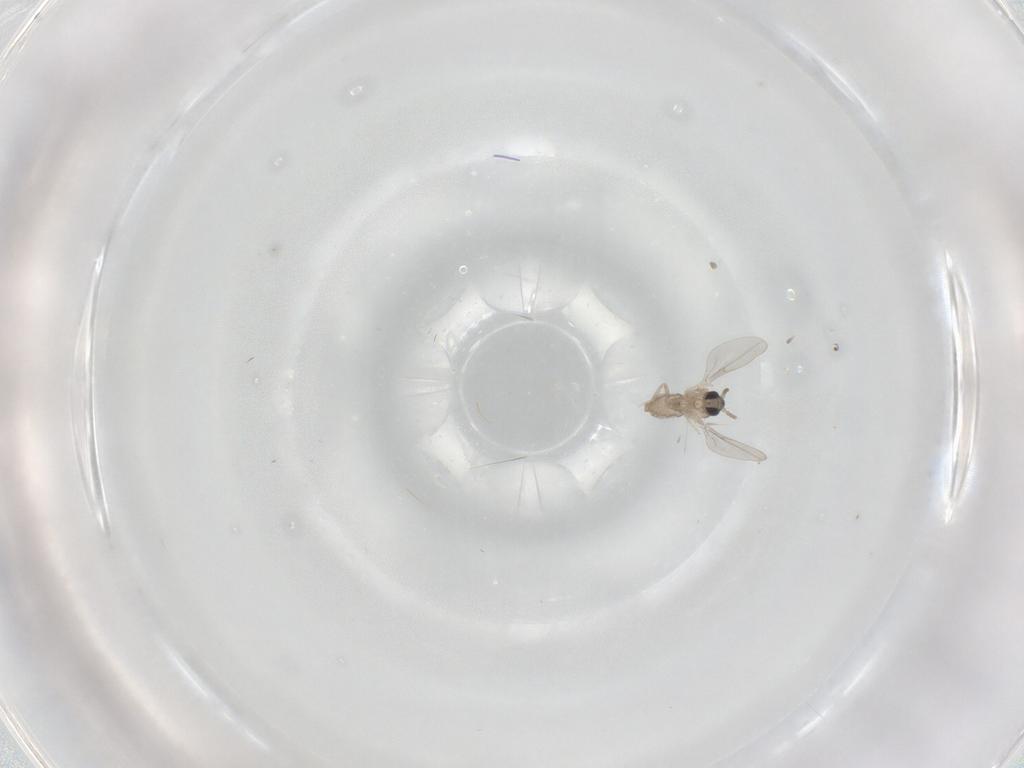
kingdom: Animalia
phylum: Arthropoda
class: Insecta
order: Diptera
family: Cecidomyiidae
